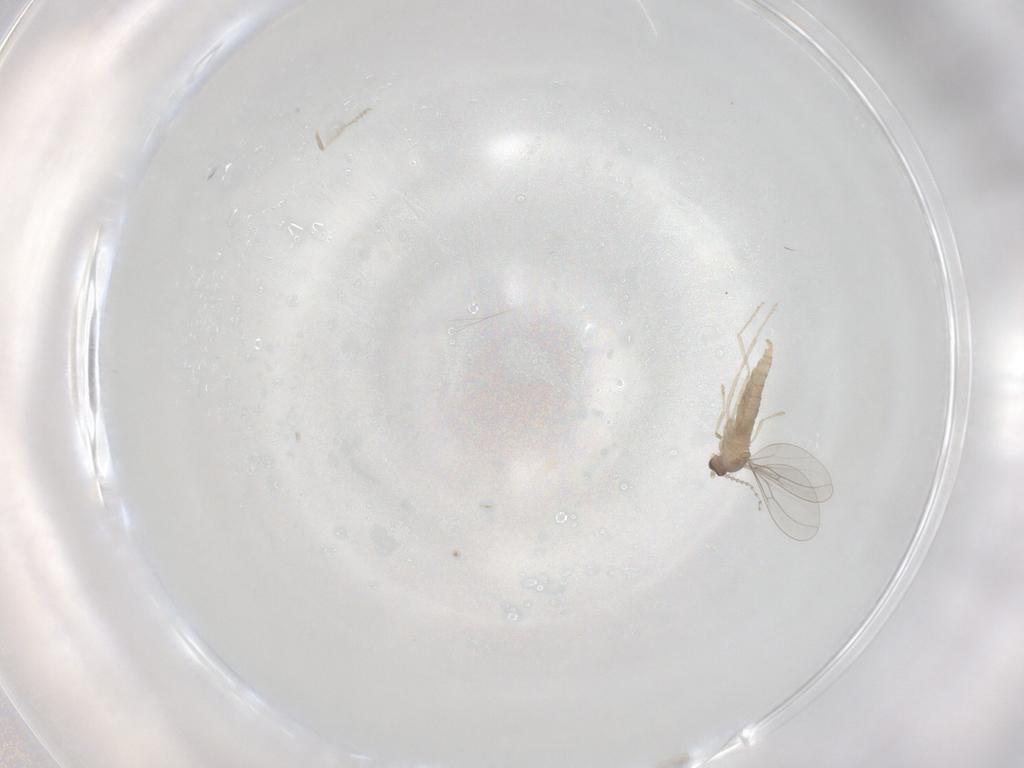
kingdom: Animalia
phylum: Arthropoda
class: Insecta
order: Diptera
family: Cecidomyiidae
